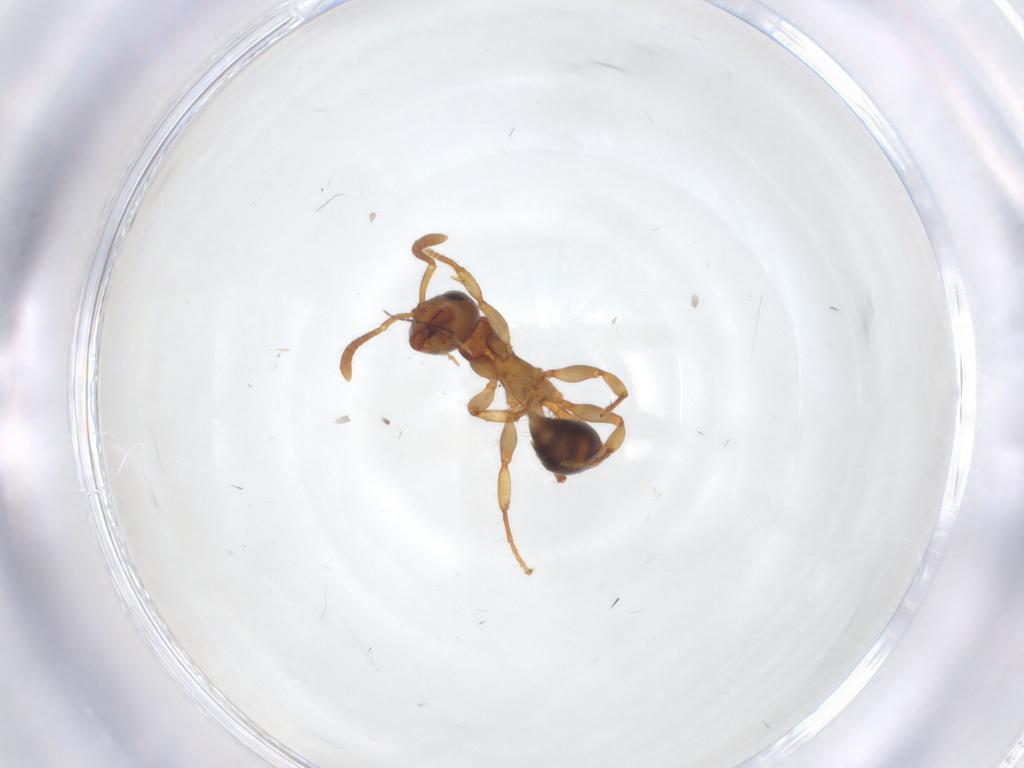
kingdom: Animalia
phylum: Arthropoda
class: Insecta
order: Hymenoptera
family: Formicidae
